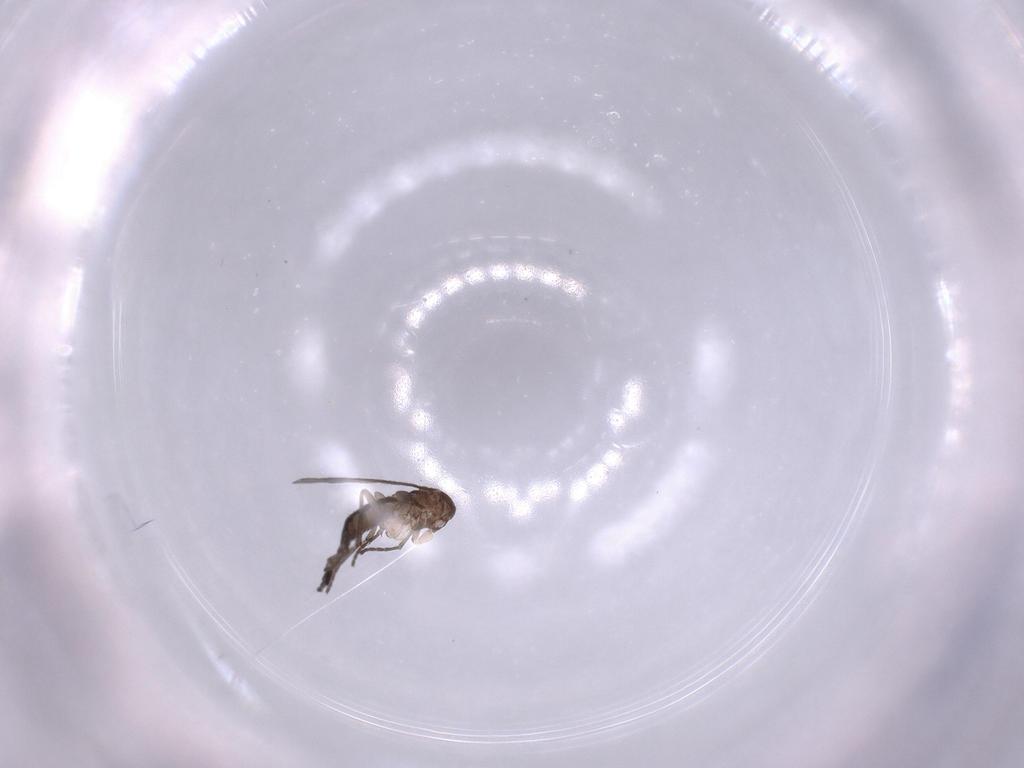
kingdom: Animalia
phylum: Arthropoda
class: Insecta
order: Diptera
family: Sciaridae
